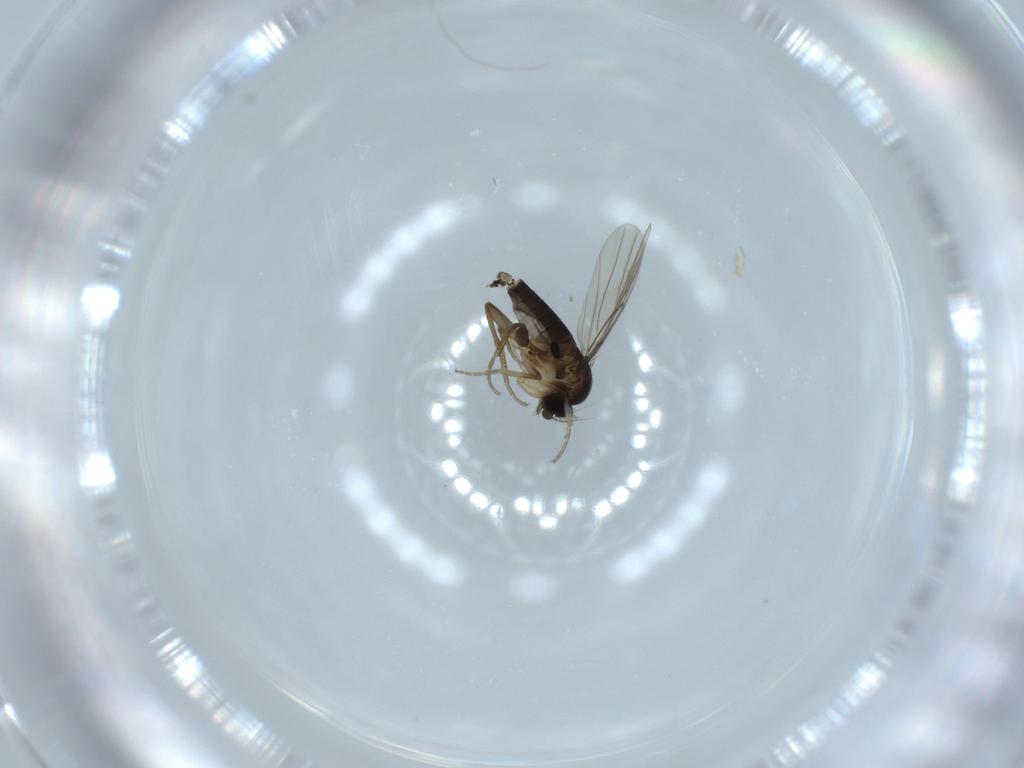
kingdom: Animalia
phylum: Arthropoda
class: Insecta
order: Diptera
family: Phoridae
